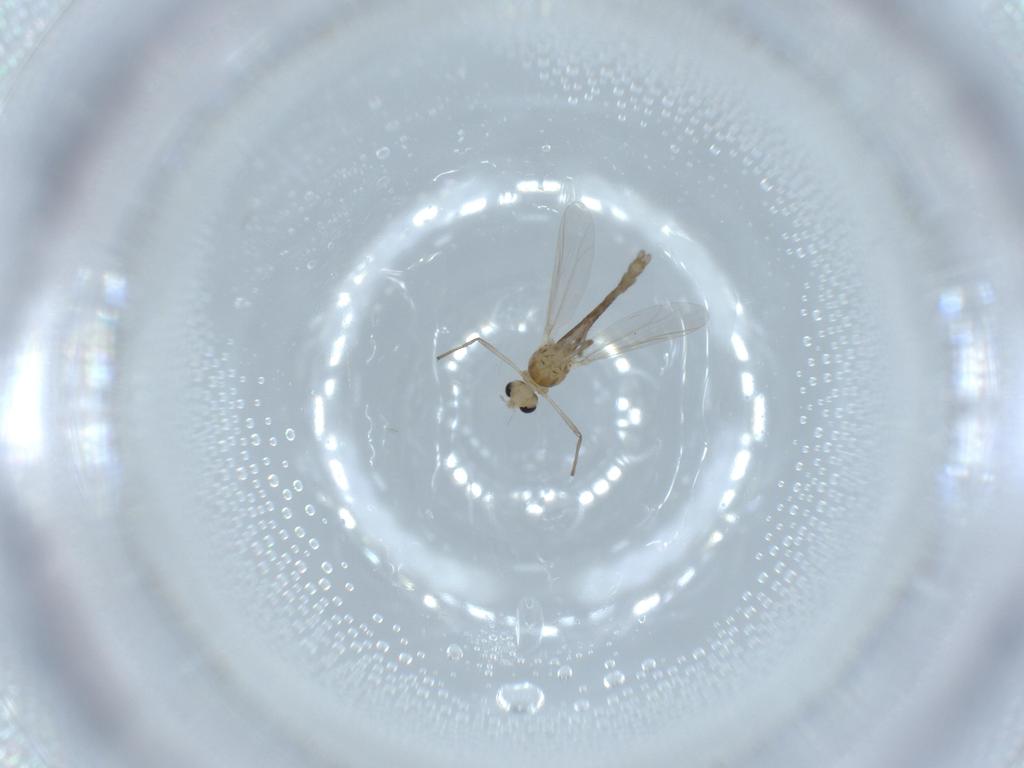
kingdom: Animalia
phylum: Arthropoda
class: Insecta
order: Diptera
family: Chironomidae
